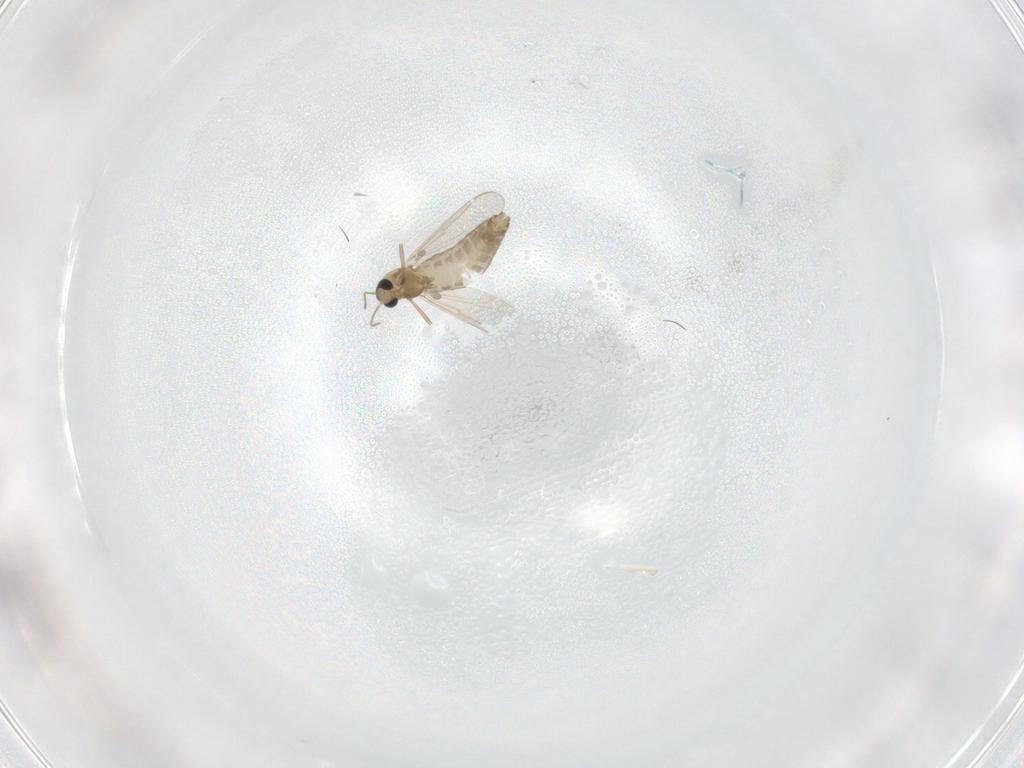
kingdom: Animalia
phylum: Arthropoda
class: Insecta
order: Diptera
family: Chironomidae
